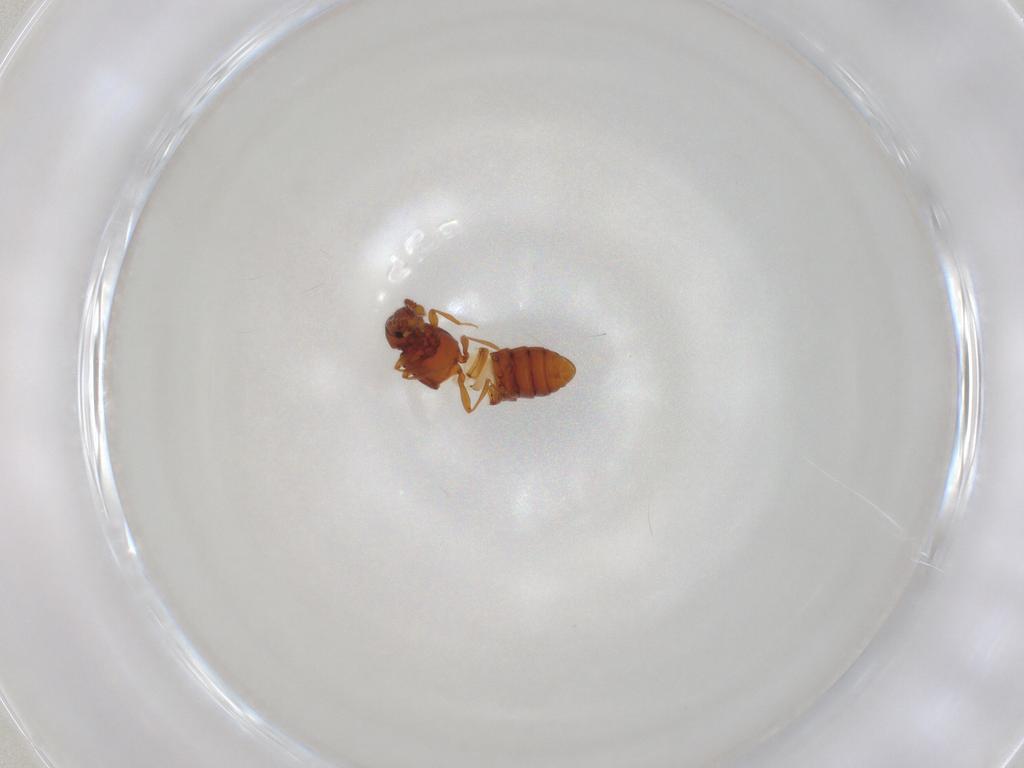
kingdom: Animalia
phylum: Arthropoda
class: Insecta
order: Coleoptera
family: Staphylinidae
